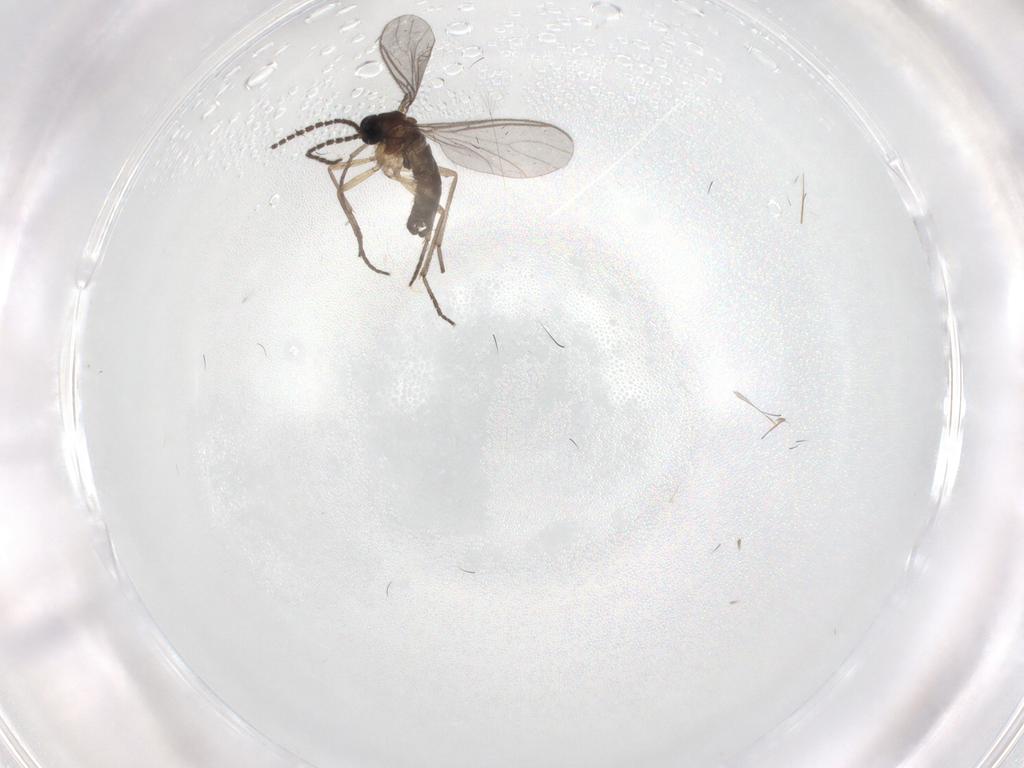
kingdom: Animalia
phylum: Arthropoda
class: Insecta
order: Diptera
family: Sciaridae
